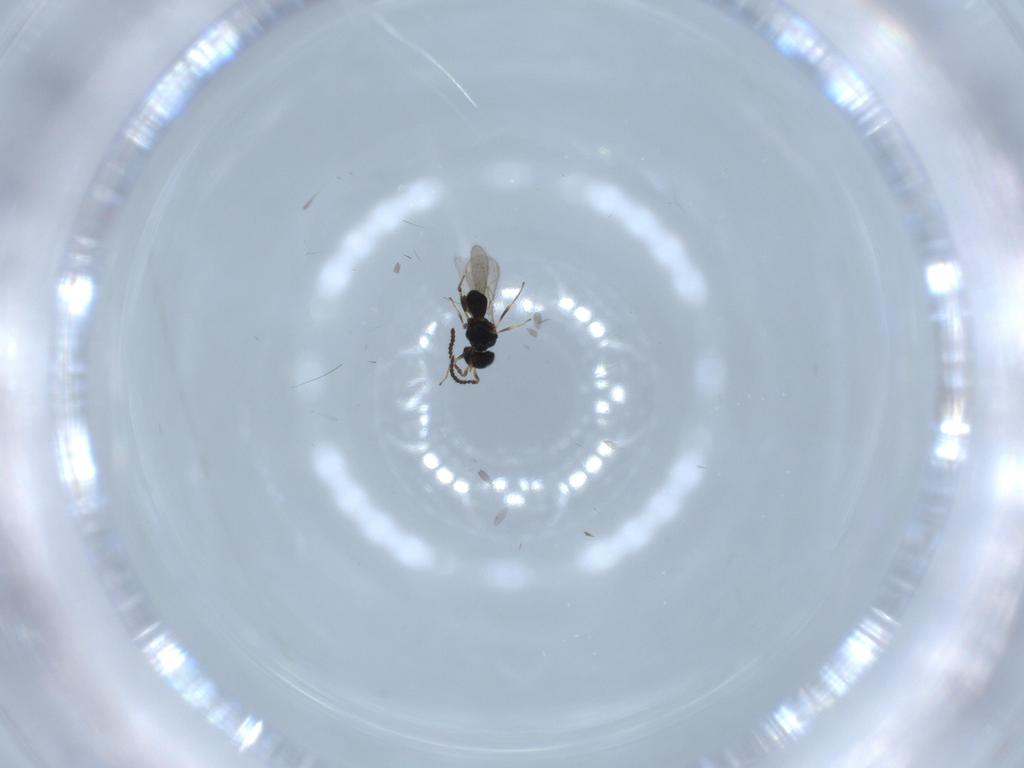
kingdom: Animalia
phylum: Arthropoda
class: Insecta
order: Hymenoptera
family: Scelionidae
